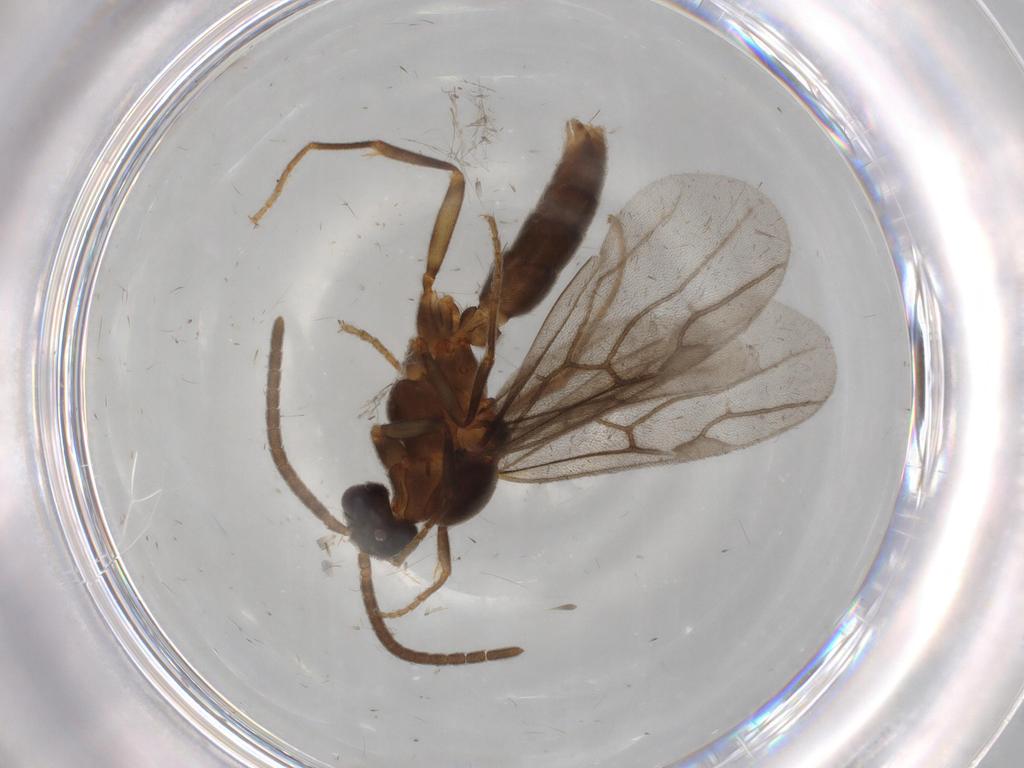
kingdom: Animalia
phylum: Arthropoda
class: Insecta
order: Hymenoptera
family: Formicidae
